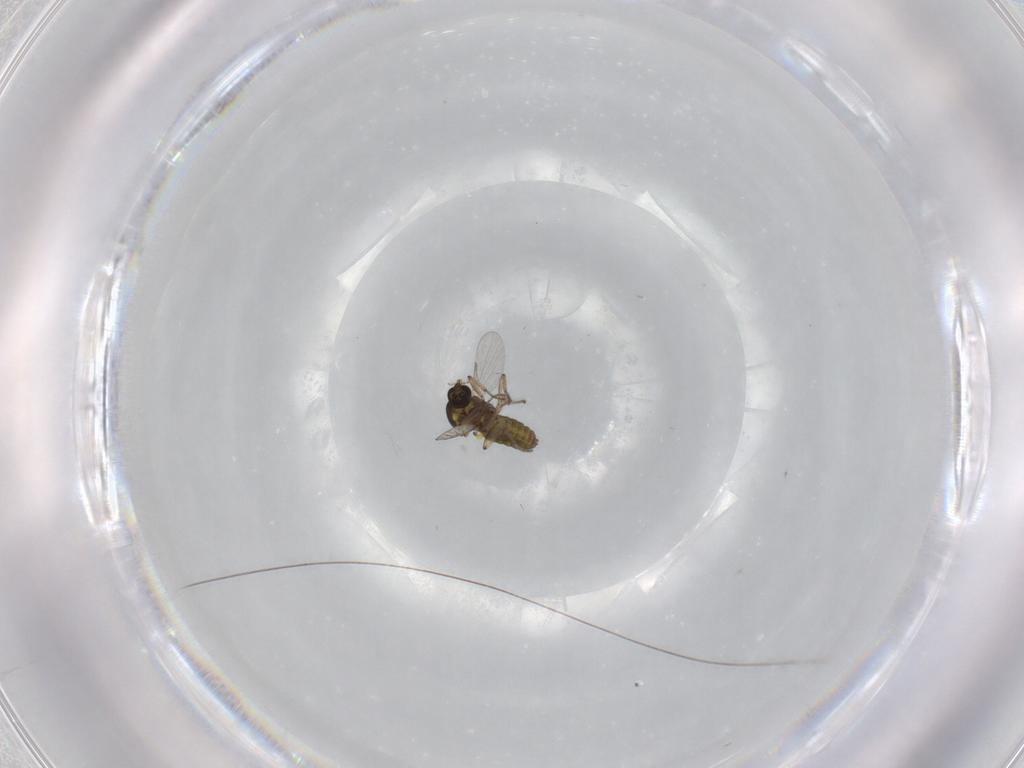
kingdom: Animalia
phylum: Arthropoda
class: Insecta
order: Diptera
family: Ceratopogonidae
